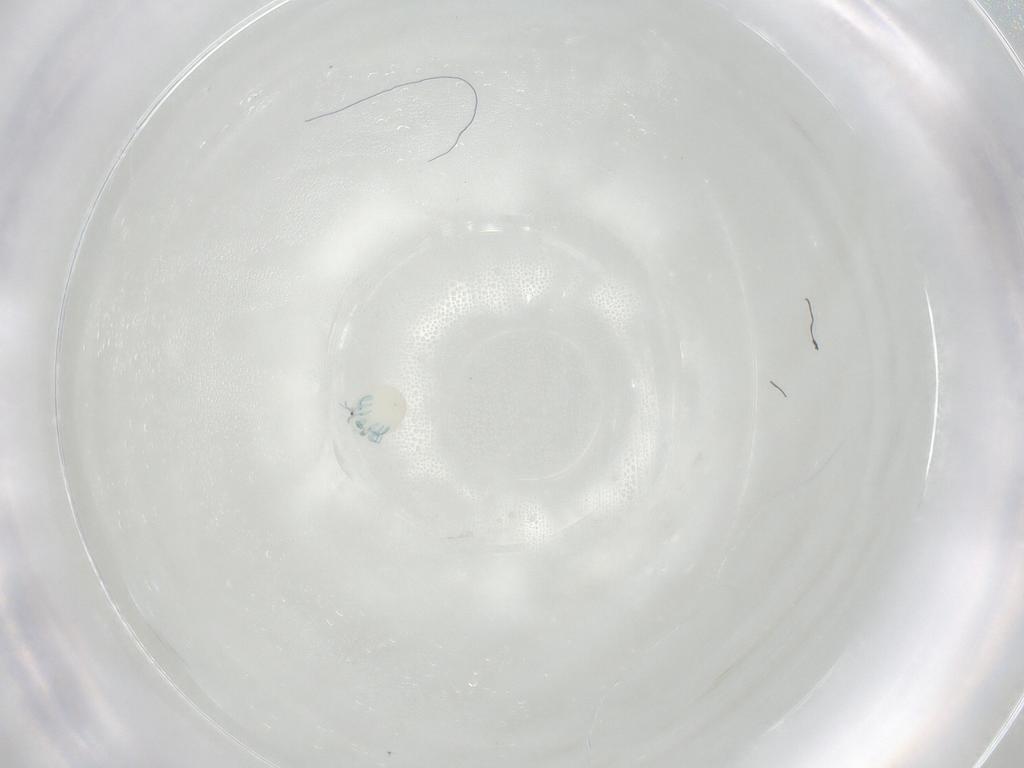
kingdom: Animalia
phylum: Arthropoda
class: Arachnida
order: Trombidiformes
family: Arrenuridae
